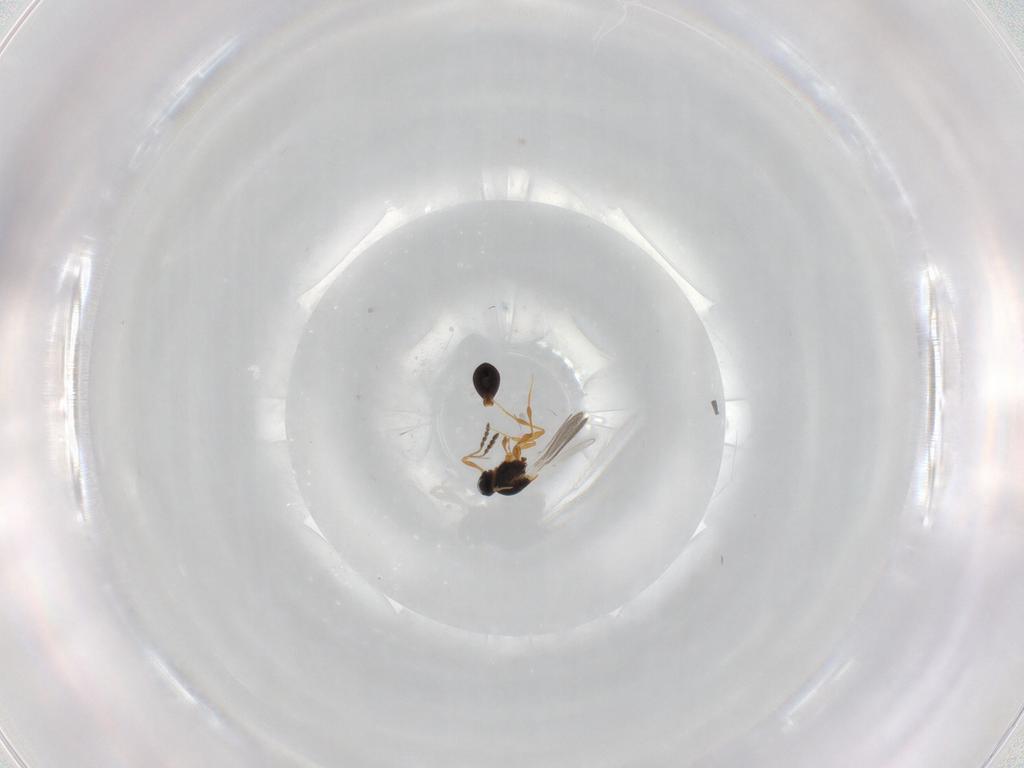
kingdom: Animalia
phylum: Arthropoda
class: Insecta
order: Hymenoptera
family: Platygastridae
